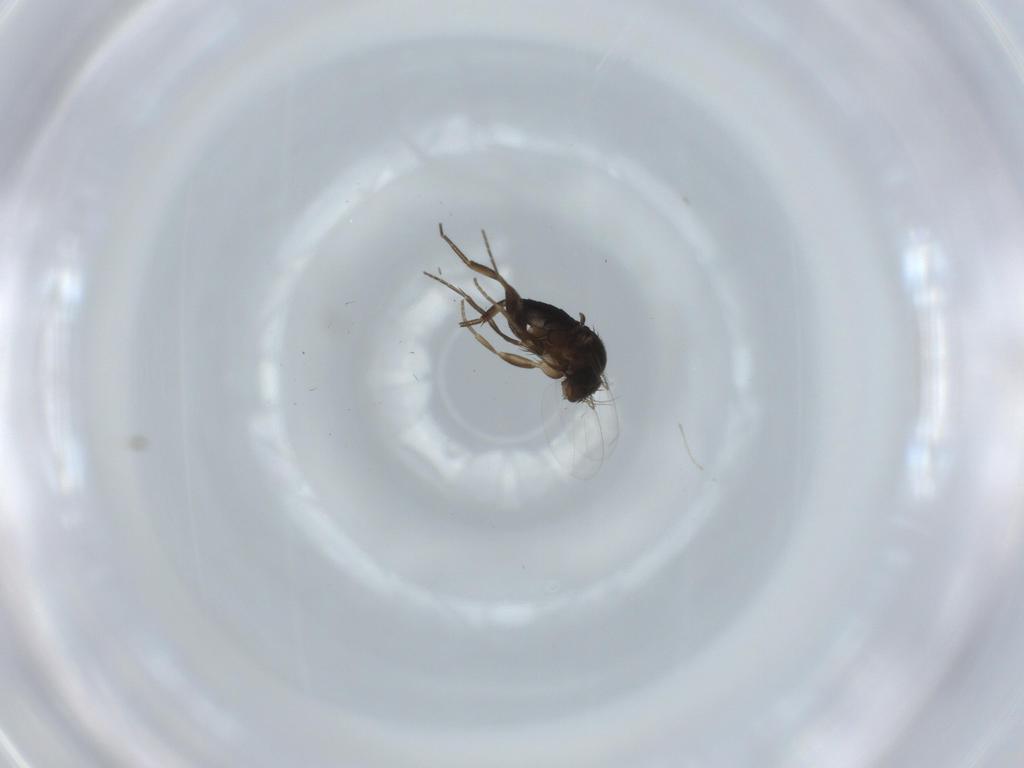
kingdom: Animalia
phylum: Arthropoda
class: Insecta
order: Diptera
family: Phoridae
